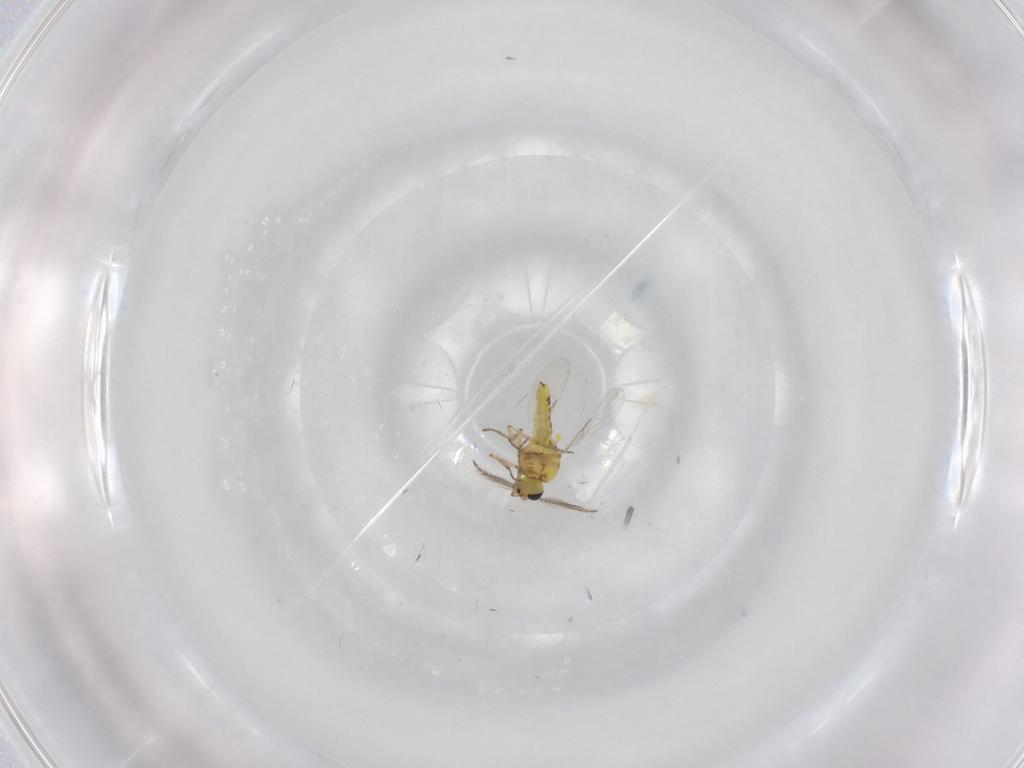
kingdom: Animalia
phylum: Arthropoda
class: Insecta
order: Diptera
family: Ceratopogonidae
